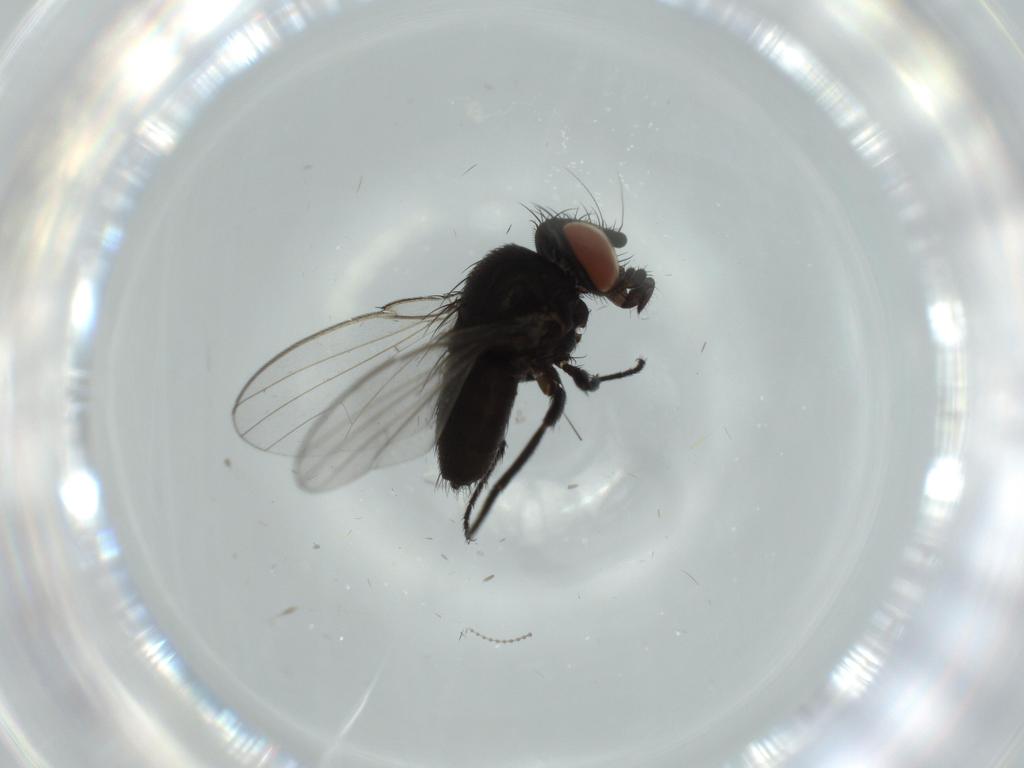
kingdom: Animalia
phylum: Arthropoda
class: Insecta
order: Diptera
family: Milichiidae
